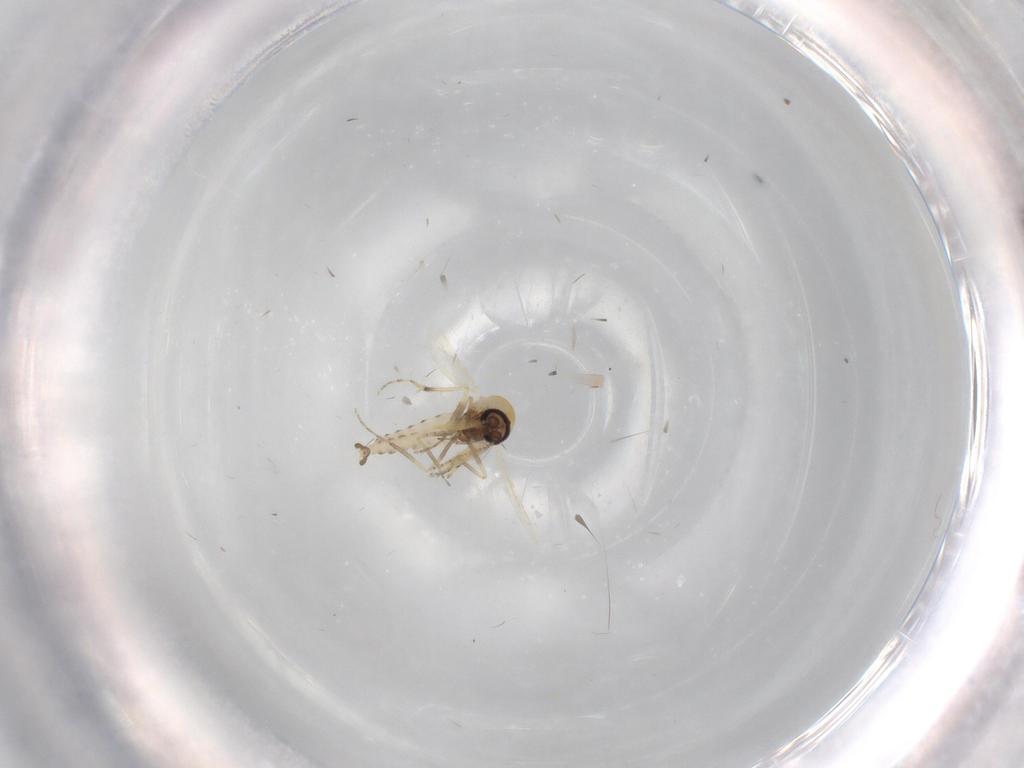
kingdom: Animalia
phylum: Arthropoda
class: Insecta
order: Diptera
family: Ceratopogonidae
